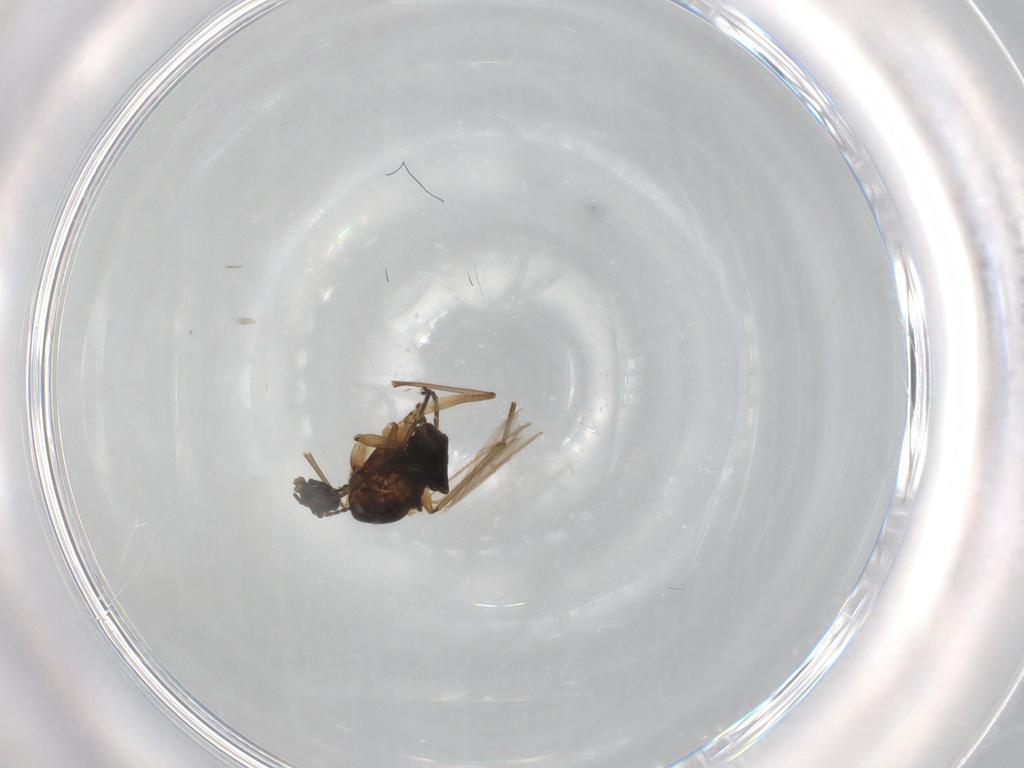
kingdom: Animalia
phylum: Arthropoda
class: Insecta
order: Diptera
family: Sciaridae
